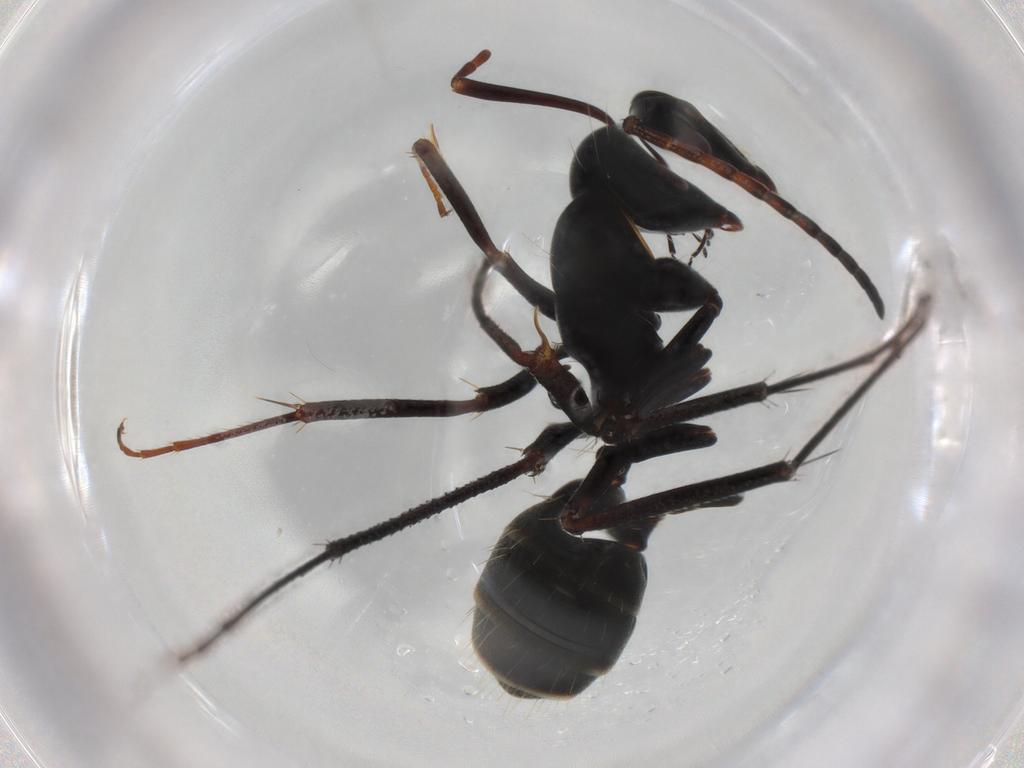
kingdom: Animalia
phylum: Arthropoda
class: Insecta
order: Hymenoptera
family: Formicidae
